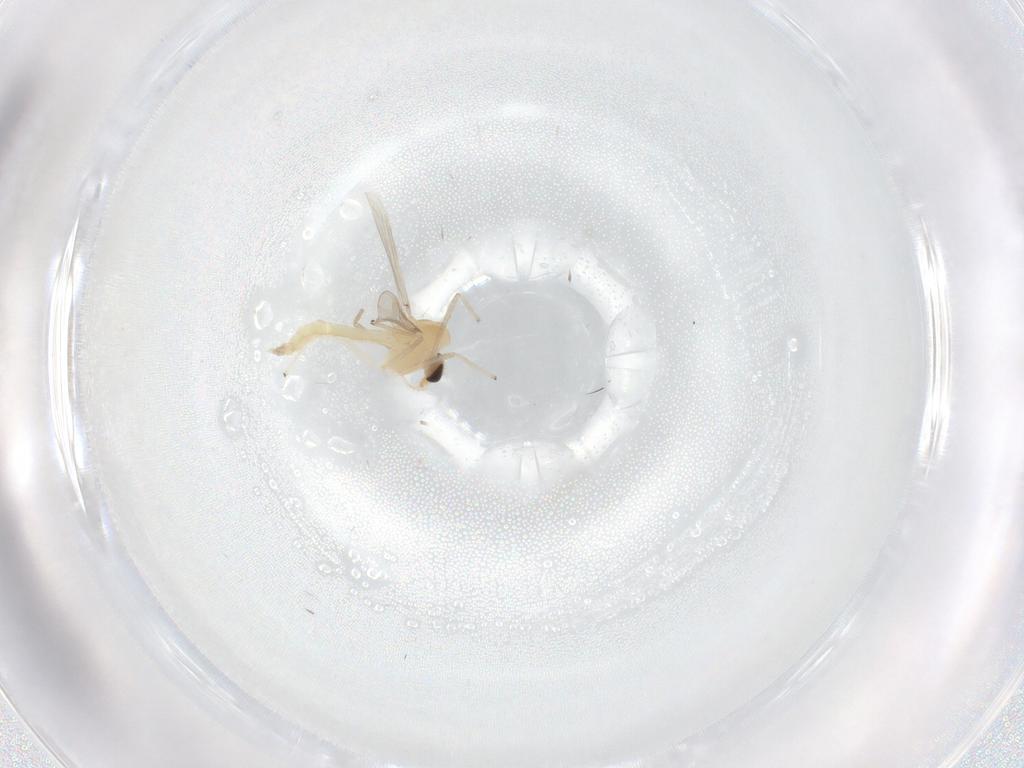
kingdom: Animalia
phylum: Arthropoda
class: Insecta
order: Diptera
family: Chironomidae
